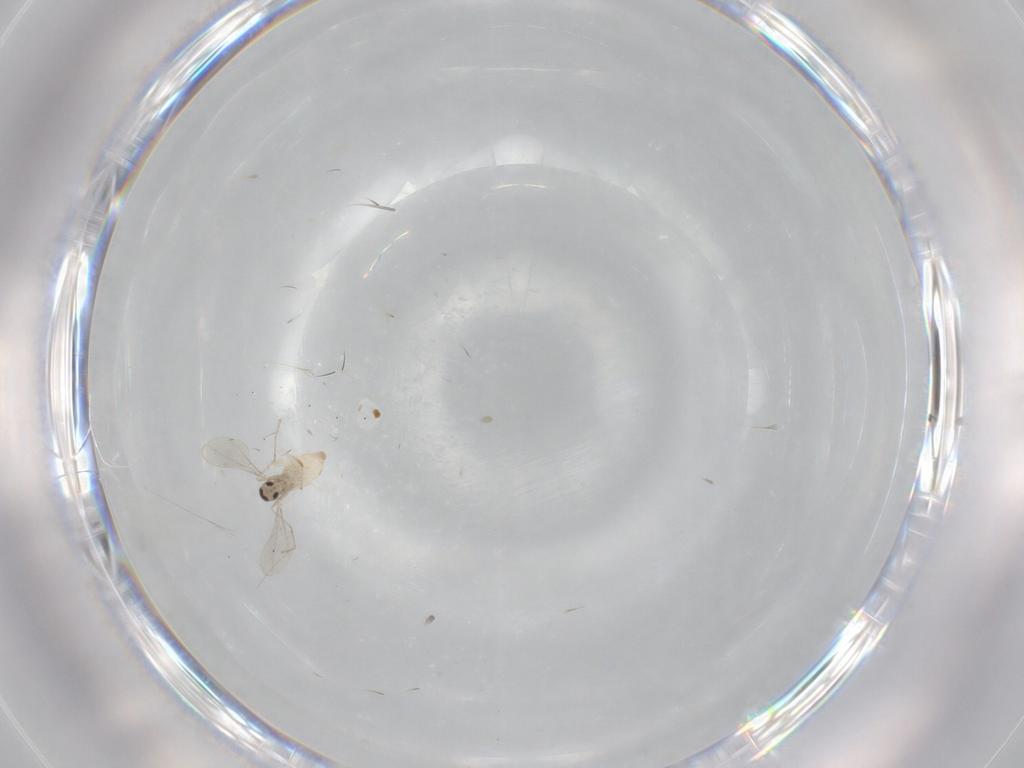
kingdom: Animalia
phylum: Arthropoda
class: Insecta
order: Diptera
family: Cecidomyiidae
